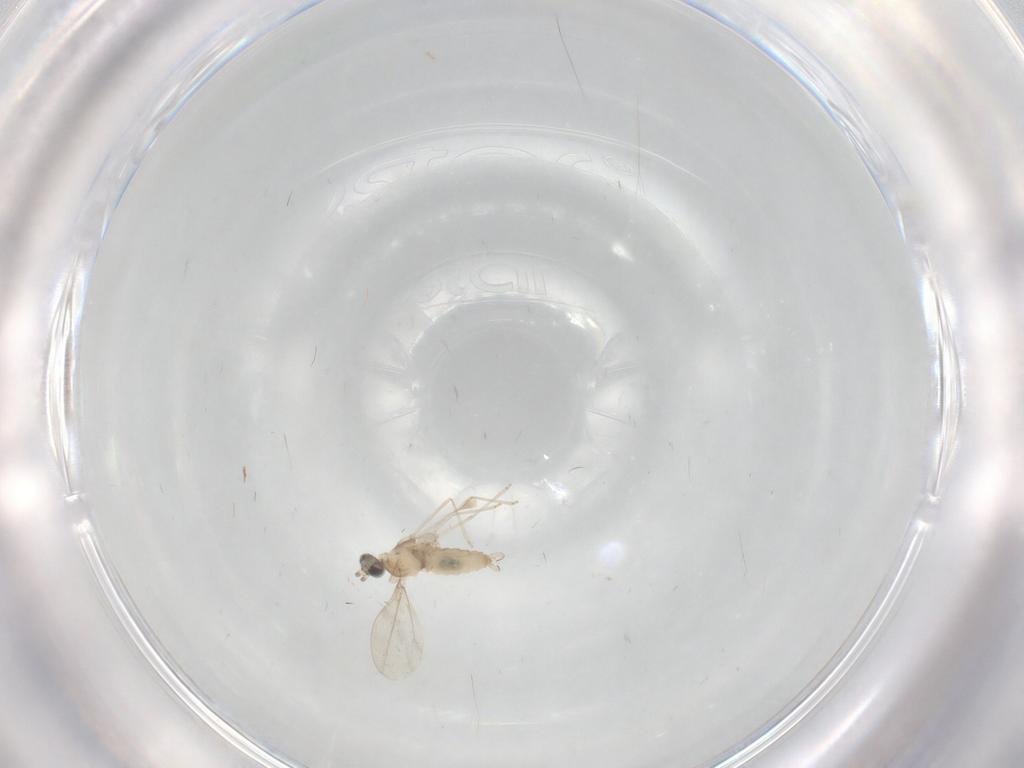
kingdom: Animalia
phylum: Arthropoda
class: Insecta
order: Diptera
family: Cecidomyiidae
